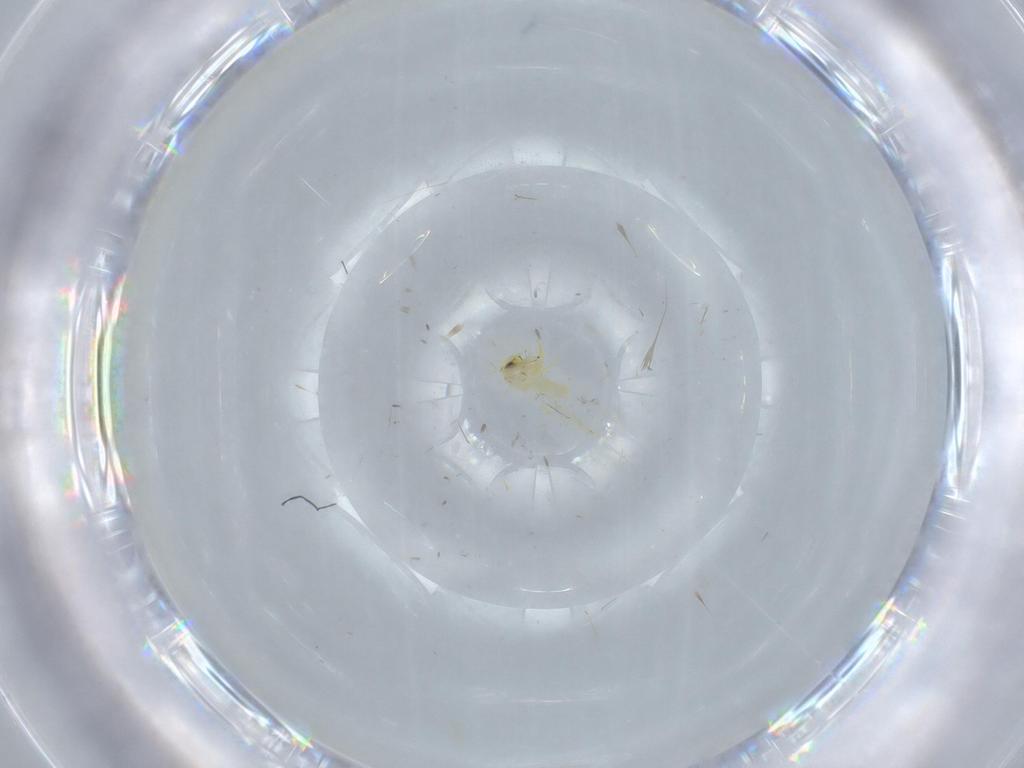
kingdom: Animalia
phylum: Arthropoda
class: Insecta
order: Hemiptera
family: Aleyrodidae
